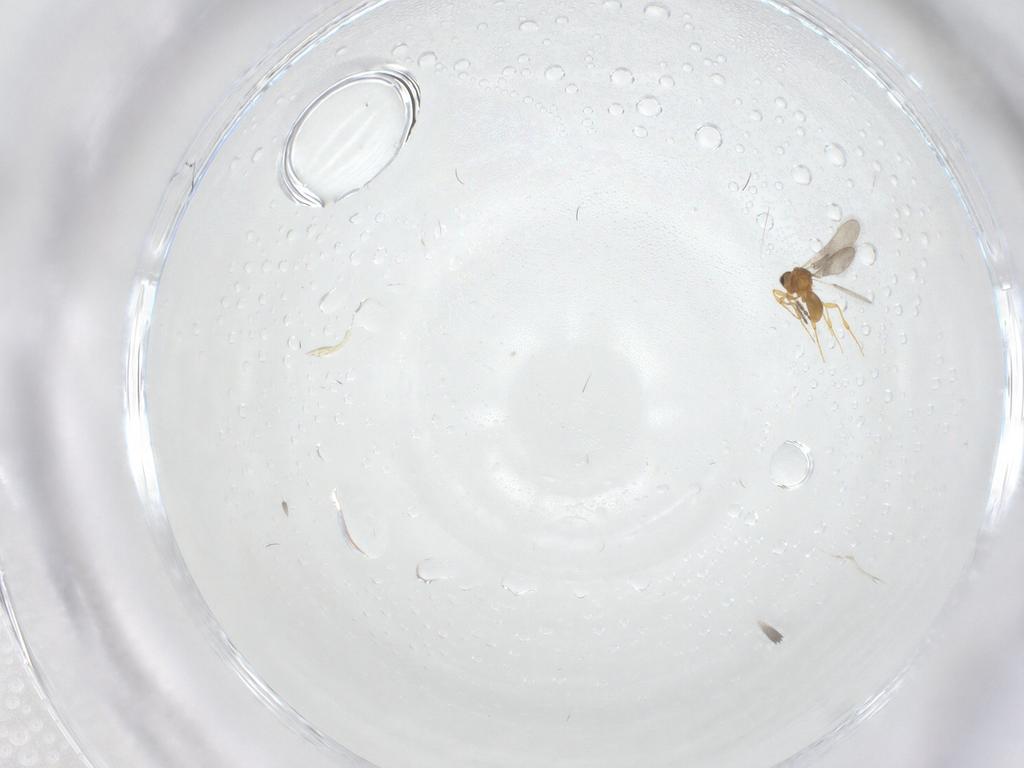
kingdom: Animalia
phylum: Arthropoda
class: Insecta
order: Hymenoptera
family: Platygastridae
